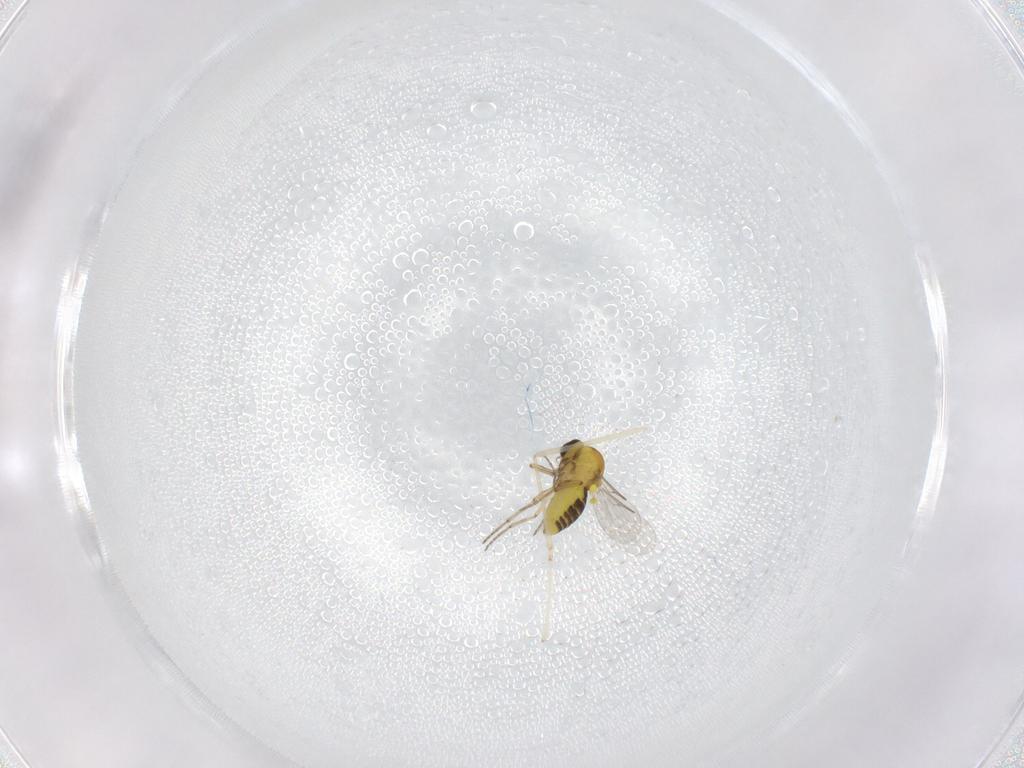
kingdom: Animalia
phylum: Arthropoda
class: Insecta
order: Diptera
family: Cecidomyiidae
